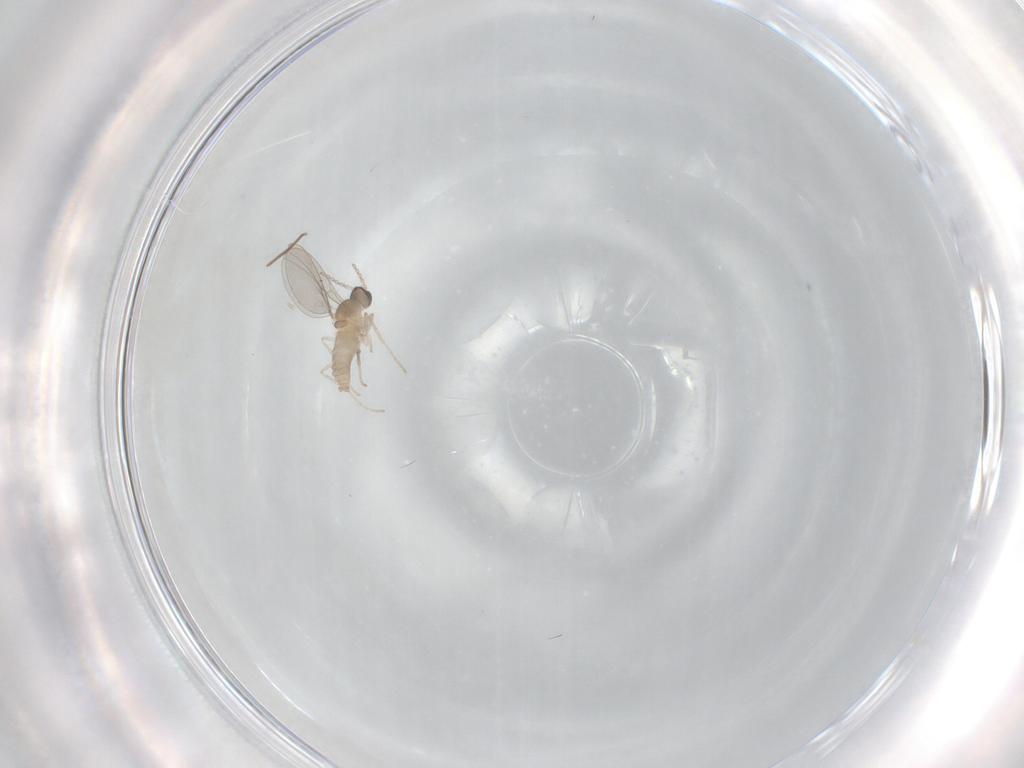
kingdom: Animalia
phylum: Arthropoda
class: Insecta
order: Diptera
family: Cecidomyiidae
